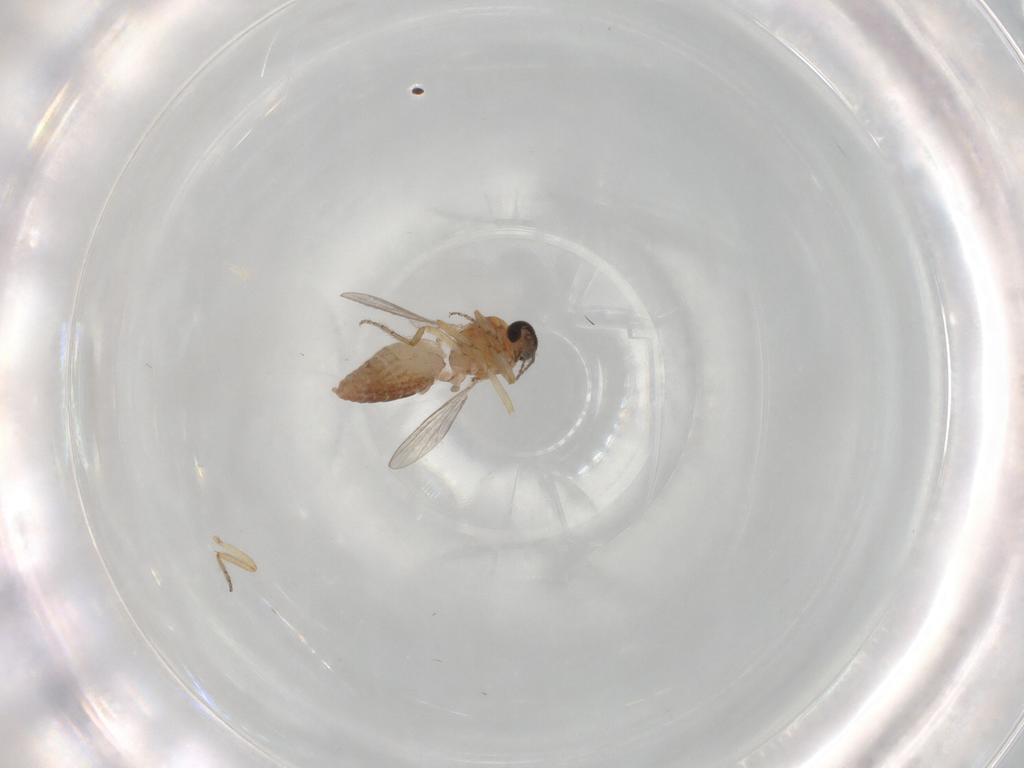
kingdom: Animalia
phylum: Arthropoda
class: Insecta
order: Diptera
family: Ceratopogonidae
